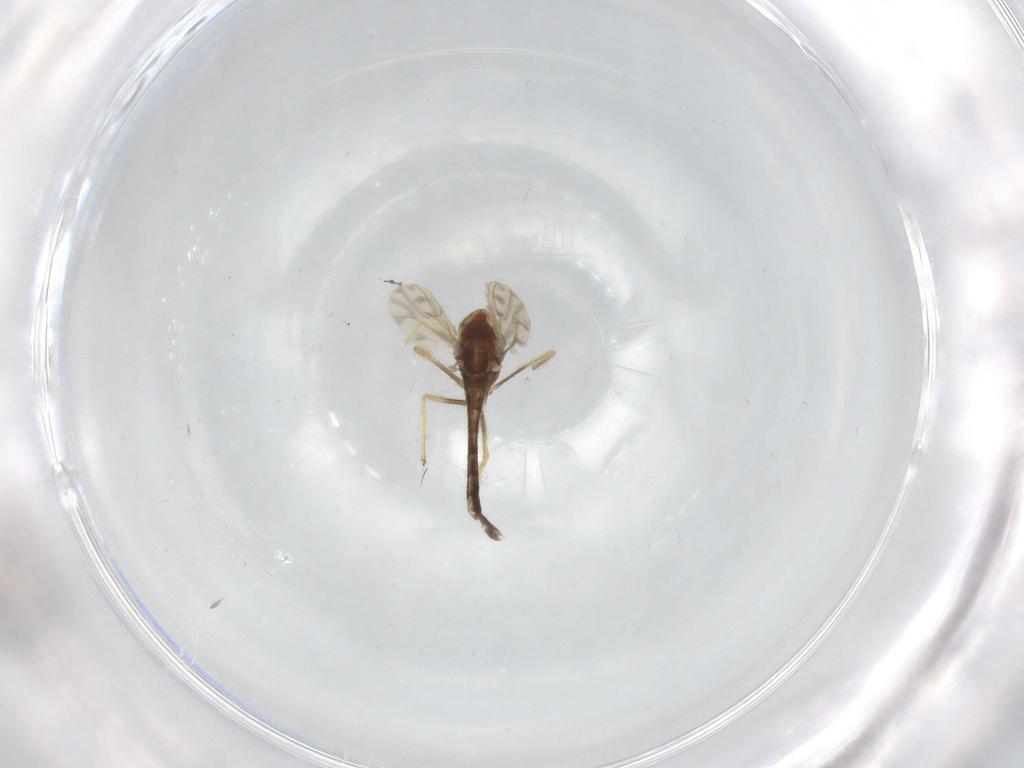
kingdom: Animalia
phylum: Arthropoda
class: Insecta
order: Diptera
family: Chironomidae
